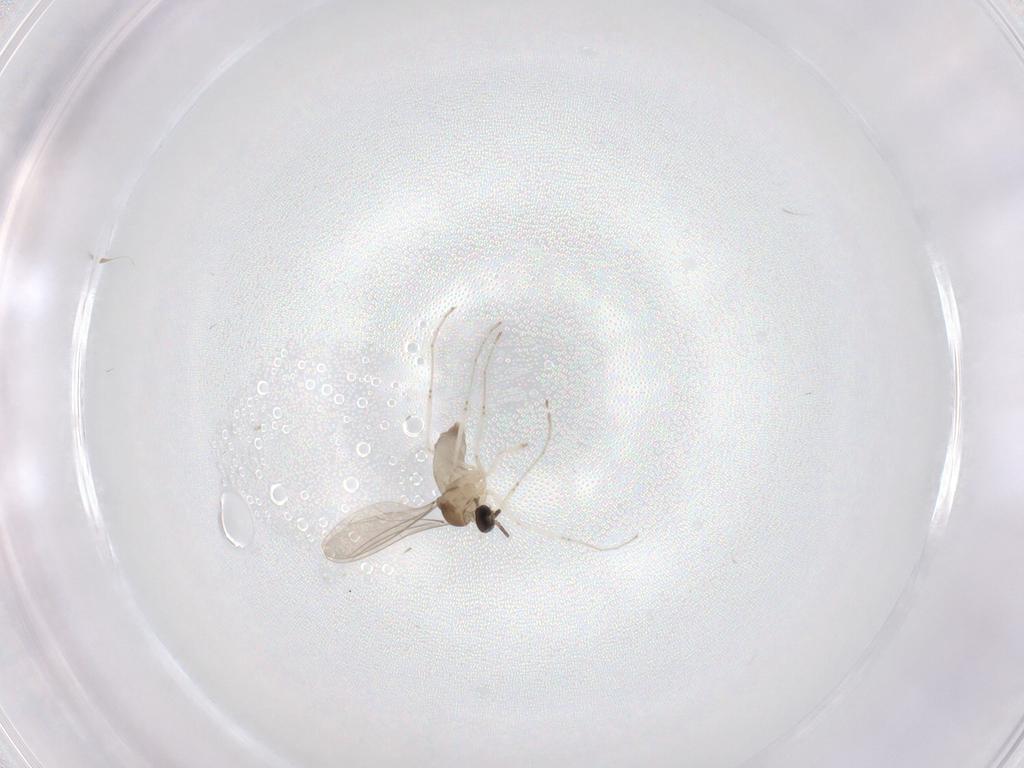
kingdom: Animalia
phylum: Arthropoda
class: Insecta
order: Diptera
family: Cecidomyiidae
